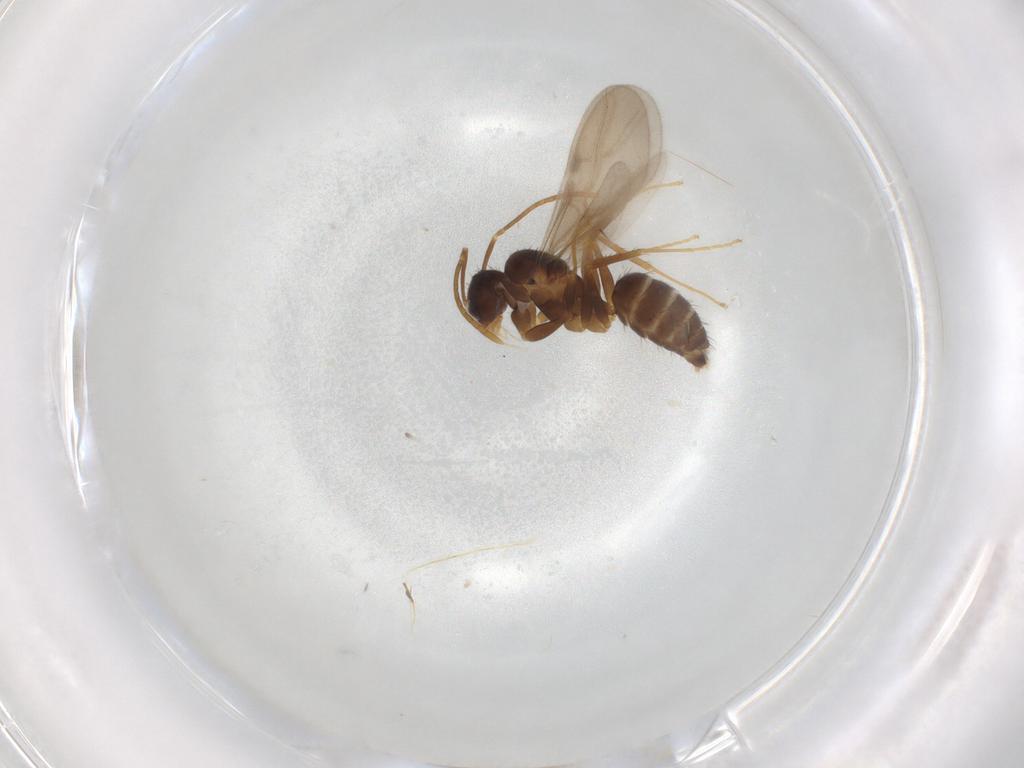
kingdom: Animalia
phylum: Arthropoda
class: Insecta
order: Hymenoptera
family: Formicidae
